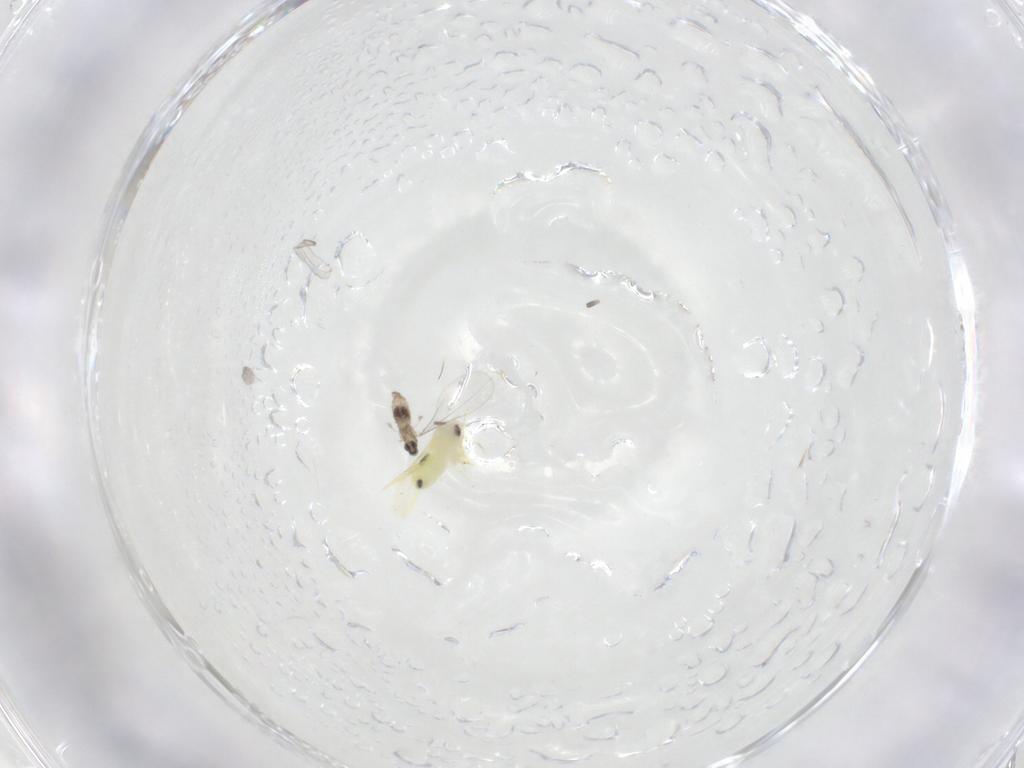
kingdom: Animalia
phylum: Arthropoda
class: Insecta
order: Diptera
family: Cecidomyiidae
